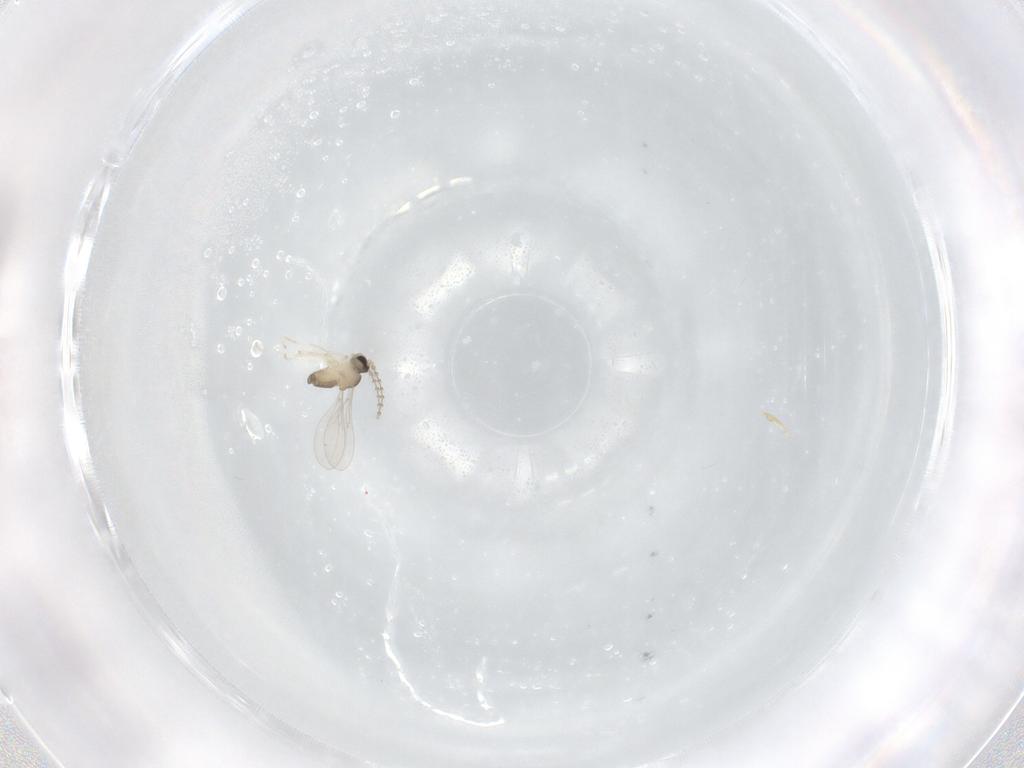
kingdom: Animalia
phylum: Arthropoda
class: Insecta
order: Diptera
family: Cecidomyiidae
